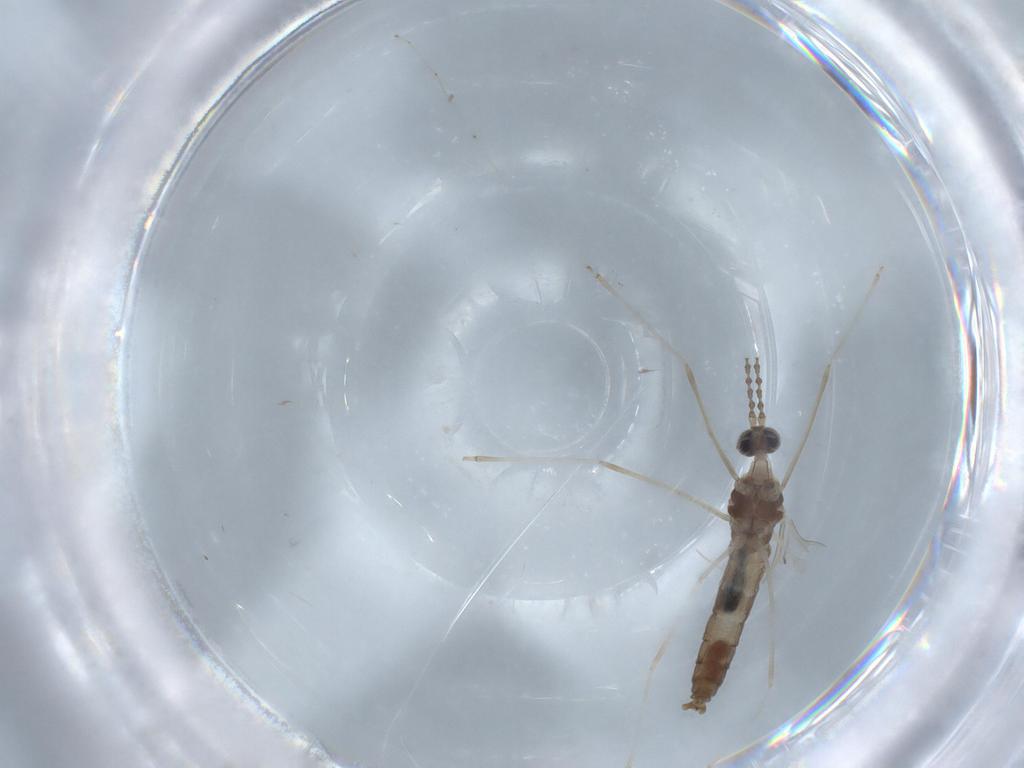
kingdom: Animalia
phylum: Arthropoda
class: Insecta
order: Diptera
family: Cecidomyiidae
